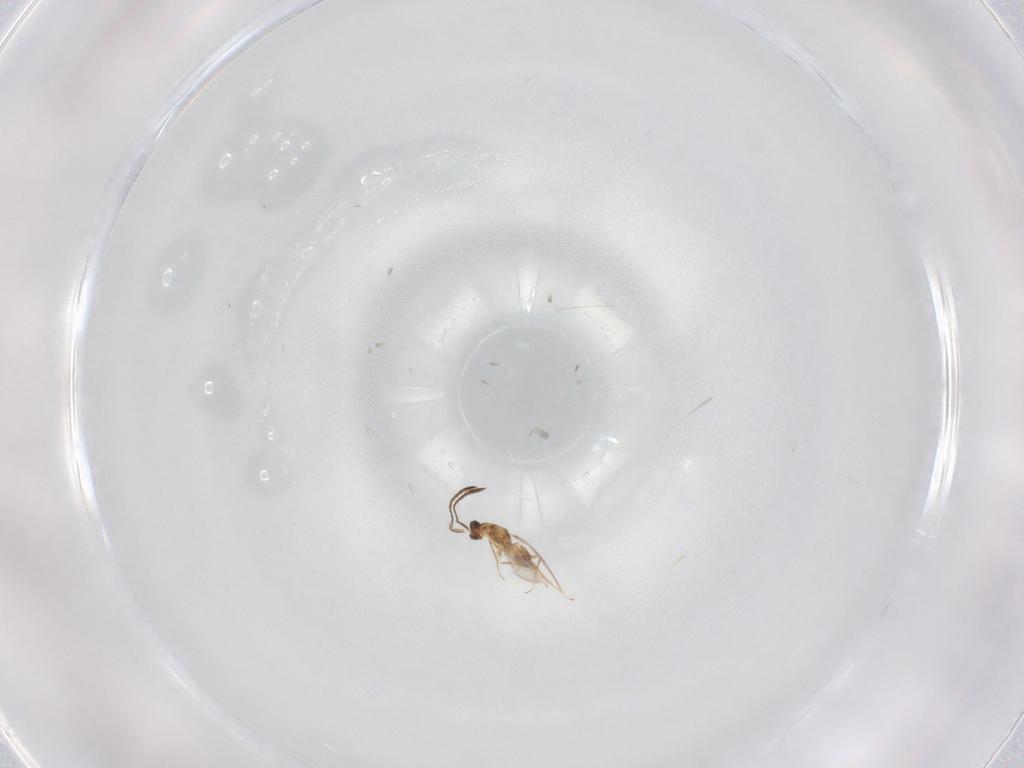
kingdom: Animalia
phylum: Arthropoda
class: Insecta
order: Hymenoptera
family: Mymaridae
